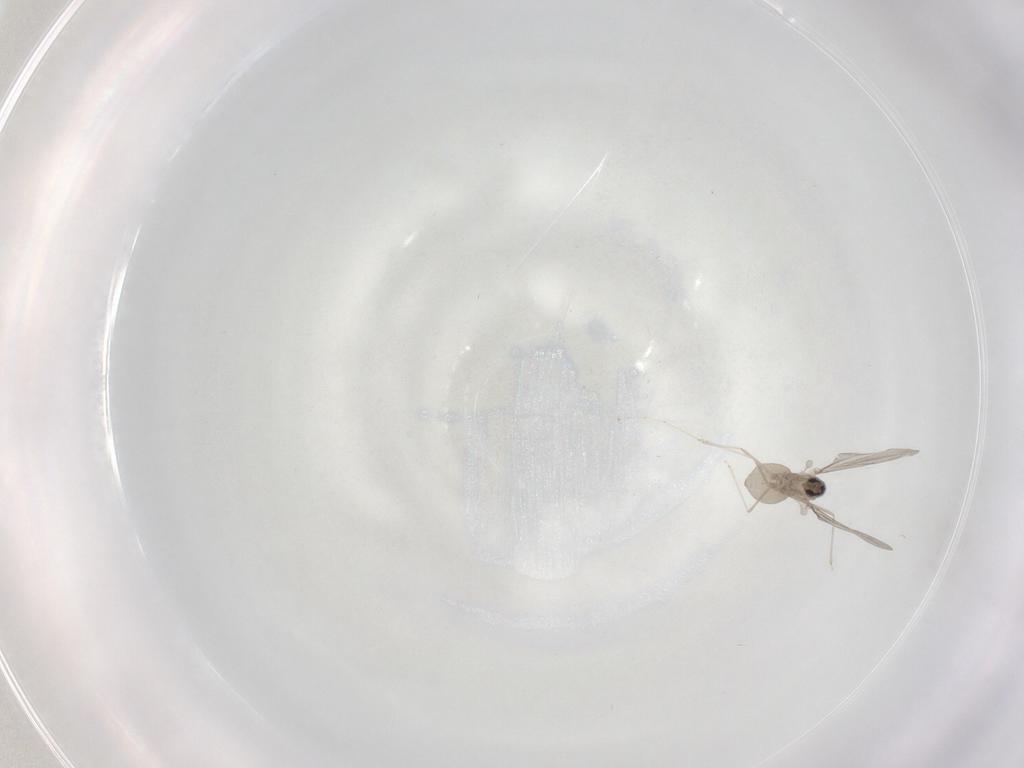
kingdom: Animalia
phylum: Arthropoda
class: Insecta
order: Diptera
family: Cecidomyiidae
